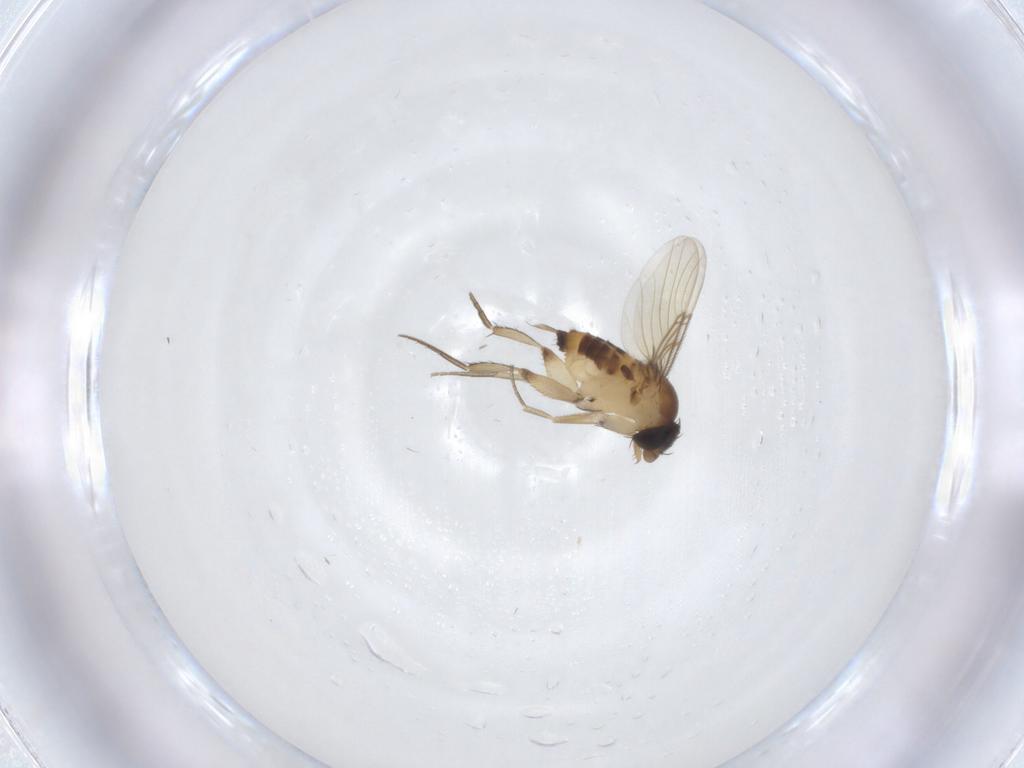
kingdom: Animalia
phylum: Arthropoda
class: Insecta
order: Diptera
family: Phoridae
